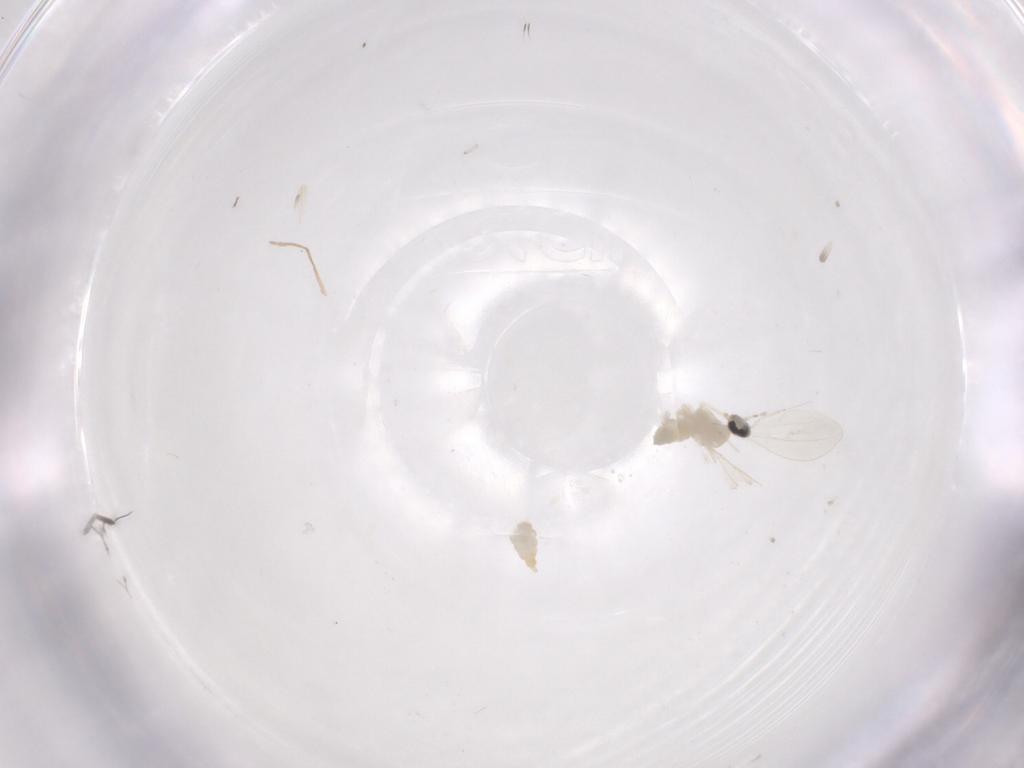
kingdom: Animalia
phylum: Arthropoda
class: Insecta
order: Diptera
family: Cecidomyiidae
